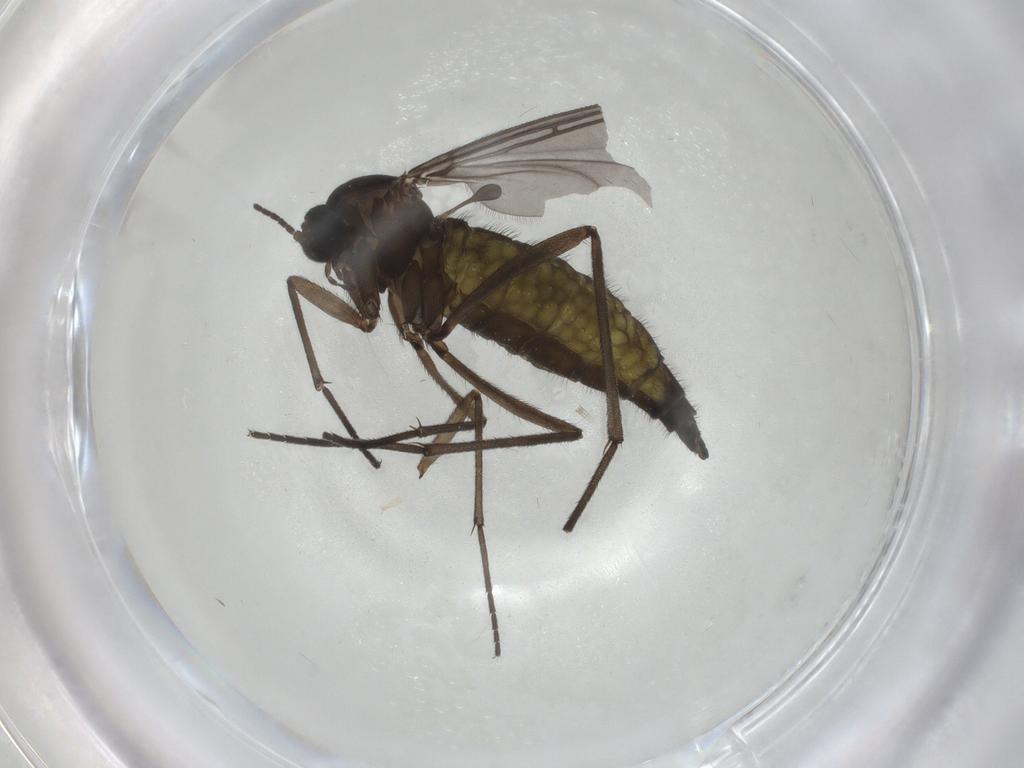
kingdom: Animalia
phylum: Arthropoda
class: Insecta
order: Diptera
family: Sciaridae
